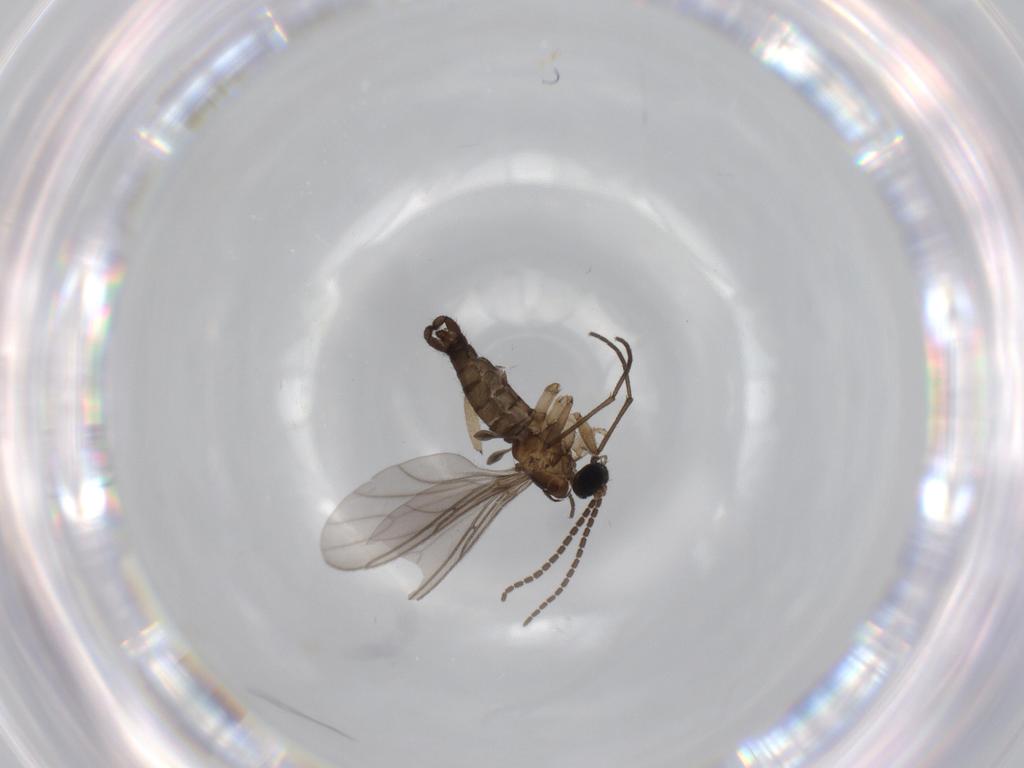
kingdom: Animalia
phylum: Arthropoda
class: Insecta
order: Diptera
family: Sciaridae
